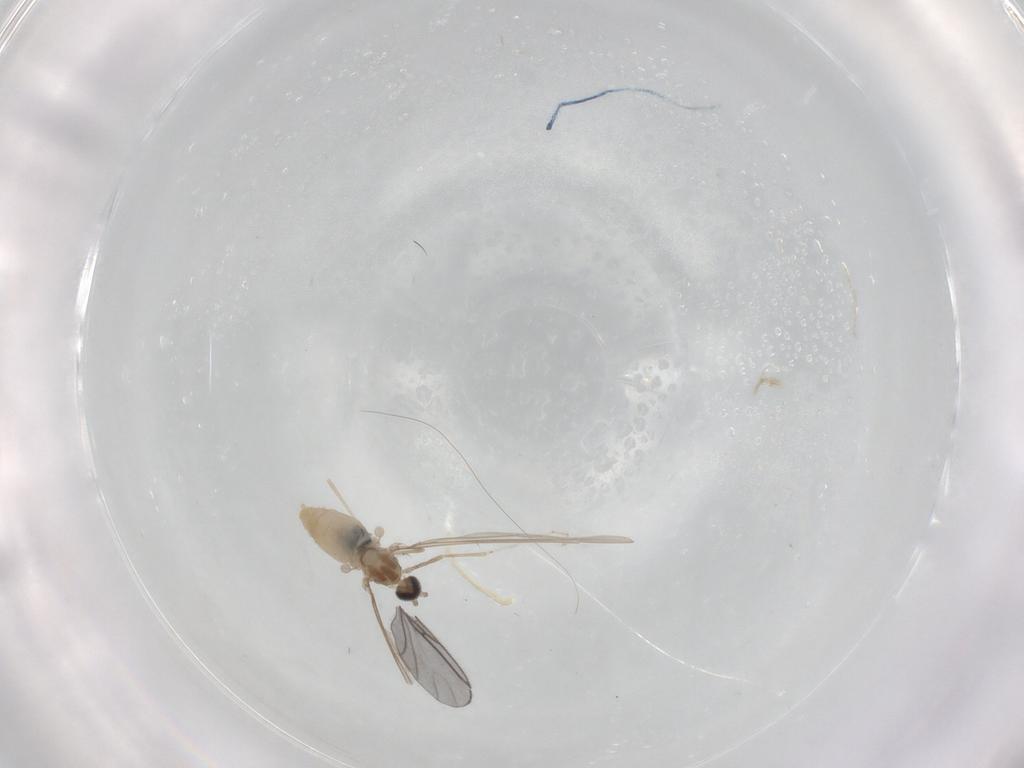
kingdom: Animalia
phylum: Arthropoda
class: Insecta
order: Diptera
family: Cecidomyiidae
